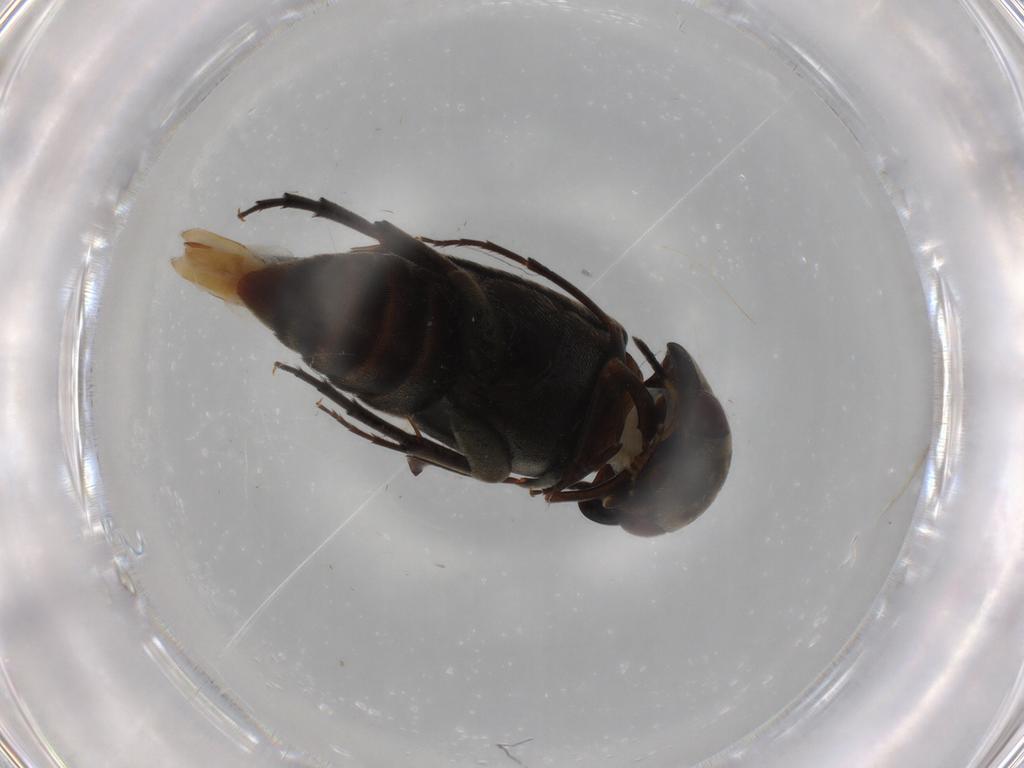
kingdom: Animalia
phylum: Arthropoda
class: Insecta
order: Coleoptera
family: Mordellidae
